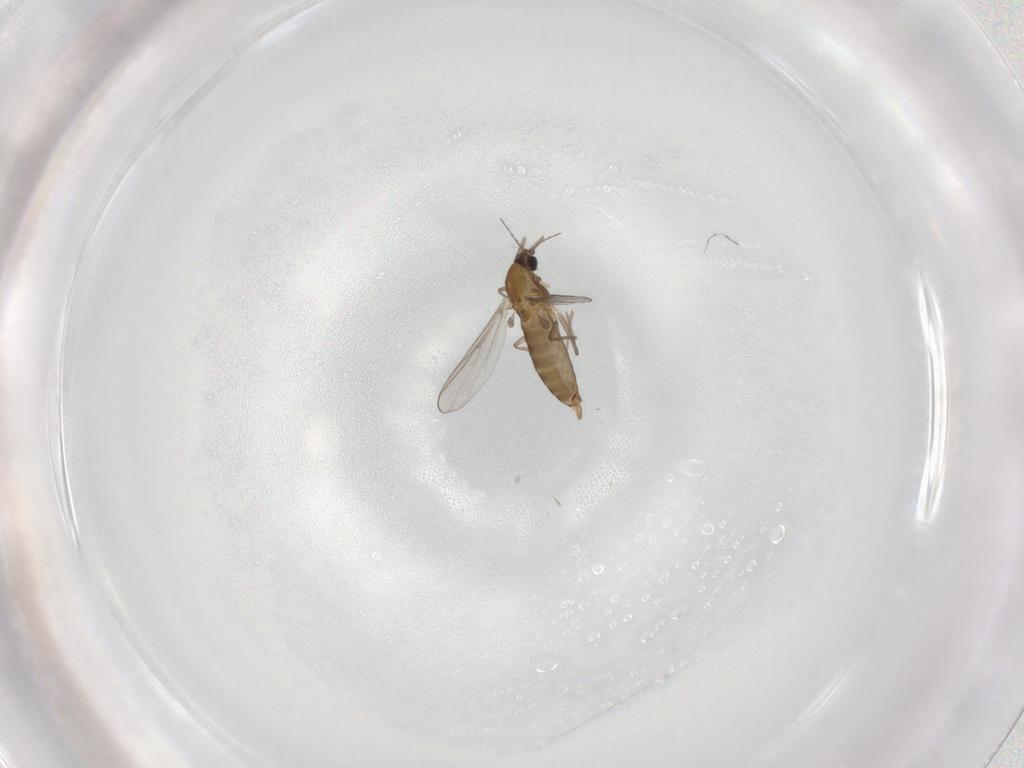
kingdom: Animalia
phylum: Arthropoda
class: Insecta
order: Diptera
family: Chironomidae
